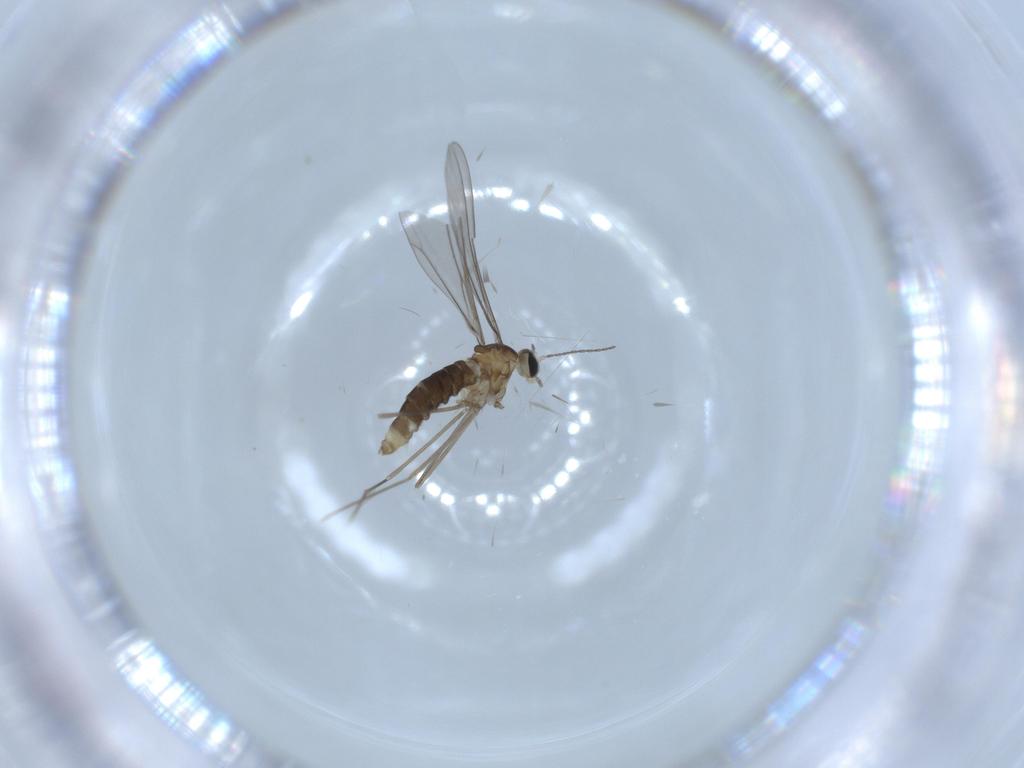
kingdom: Animalia
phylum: Arthropoda
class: Insecta
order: Diptera
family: Cecidomyiidae
